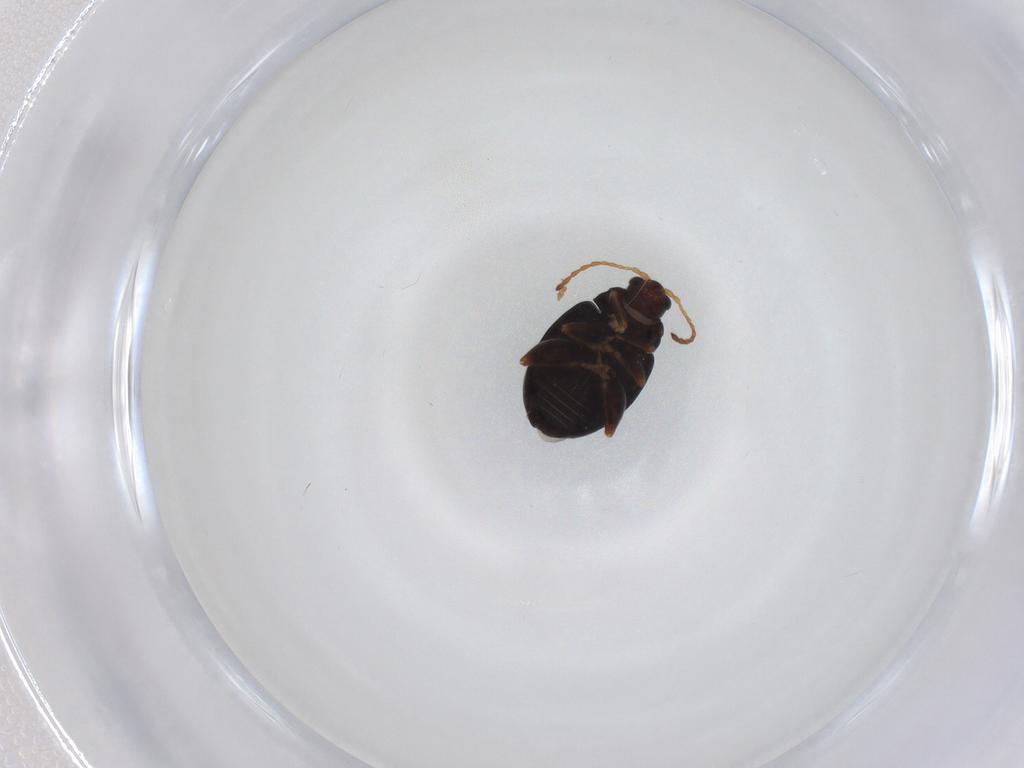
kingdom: Animalia
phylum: Arthropoda
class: Insecta
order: Coleoptera
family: Chrysomelidae
